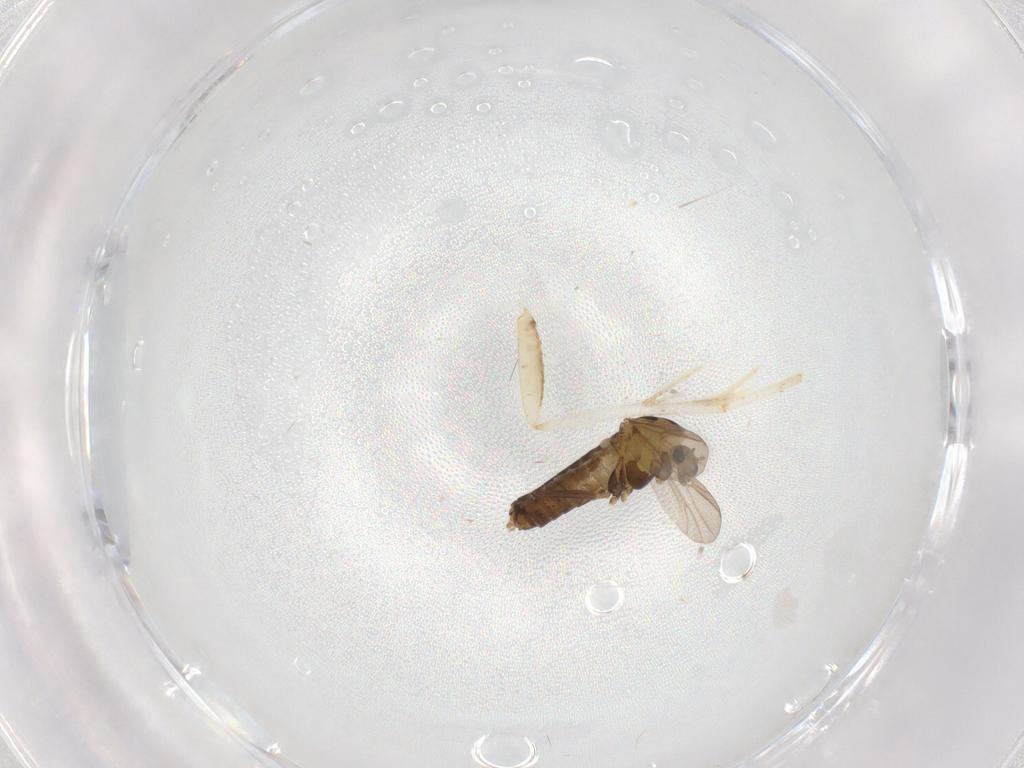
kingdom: Animalia
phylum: Arthropoda
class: Insecta
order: Diptera
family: Chironomidae
